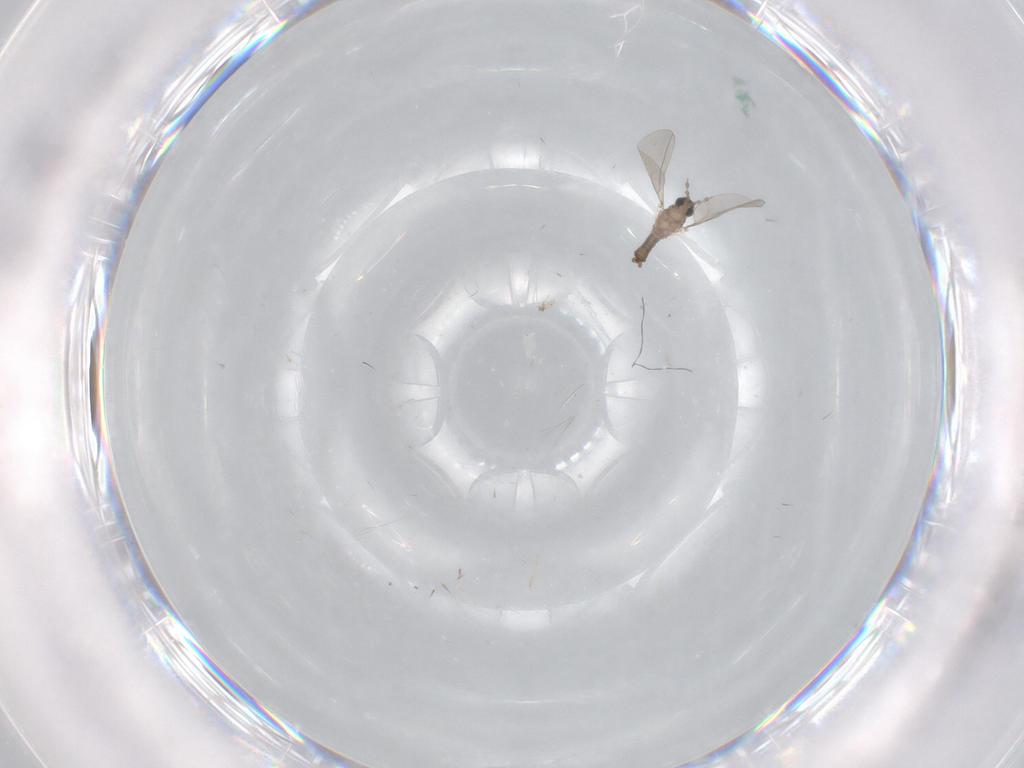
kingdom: Animalia
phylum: Arthropoda
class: Insecta
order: Diptera
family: Cecidomyiidae
